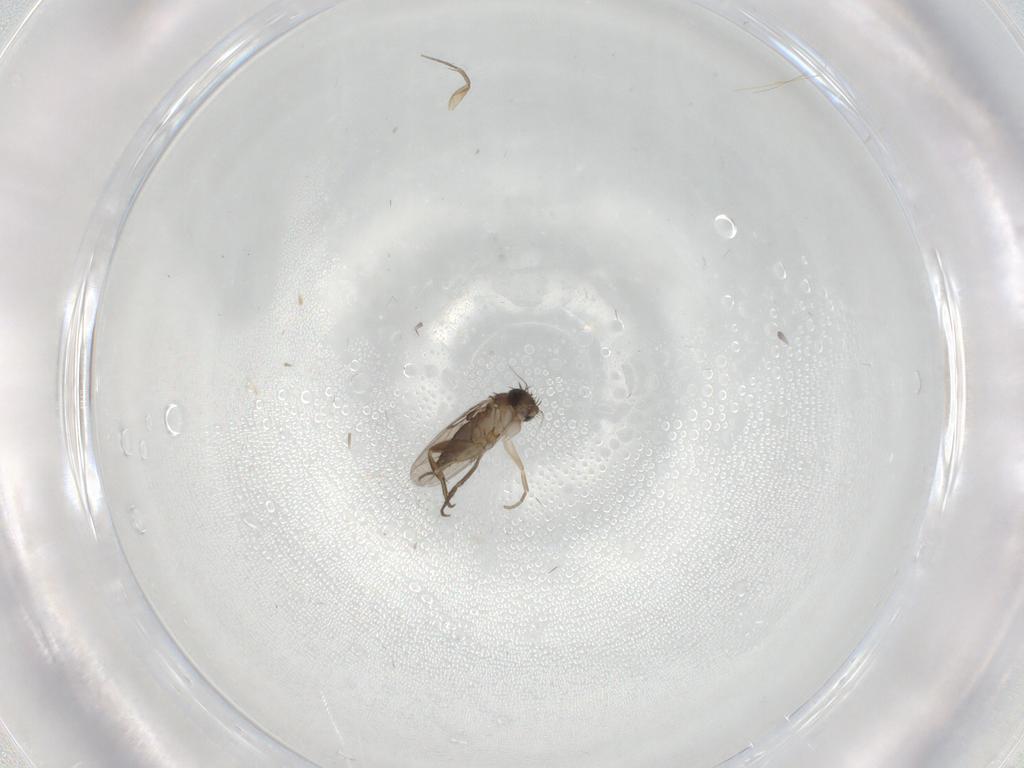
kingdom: Animalia
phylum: Arthropoda
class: Insecta
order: Diptera
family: Phoridae
